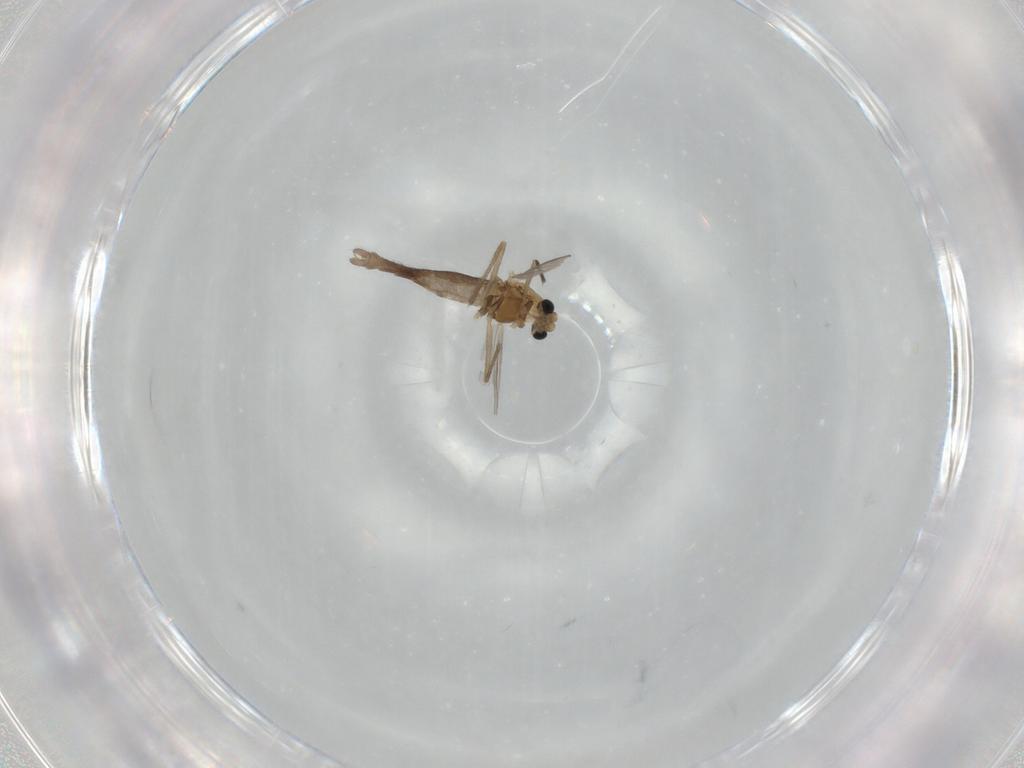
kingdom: Animalia
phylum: Arthropoda
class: Insecta
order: Diptera
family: Chironomidae
